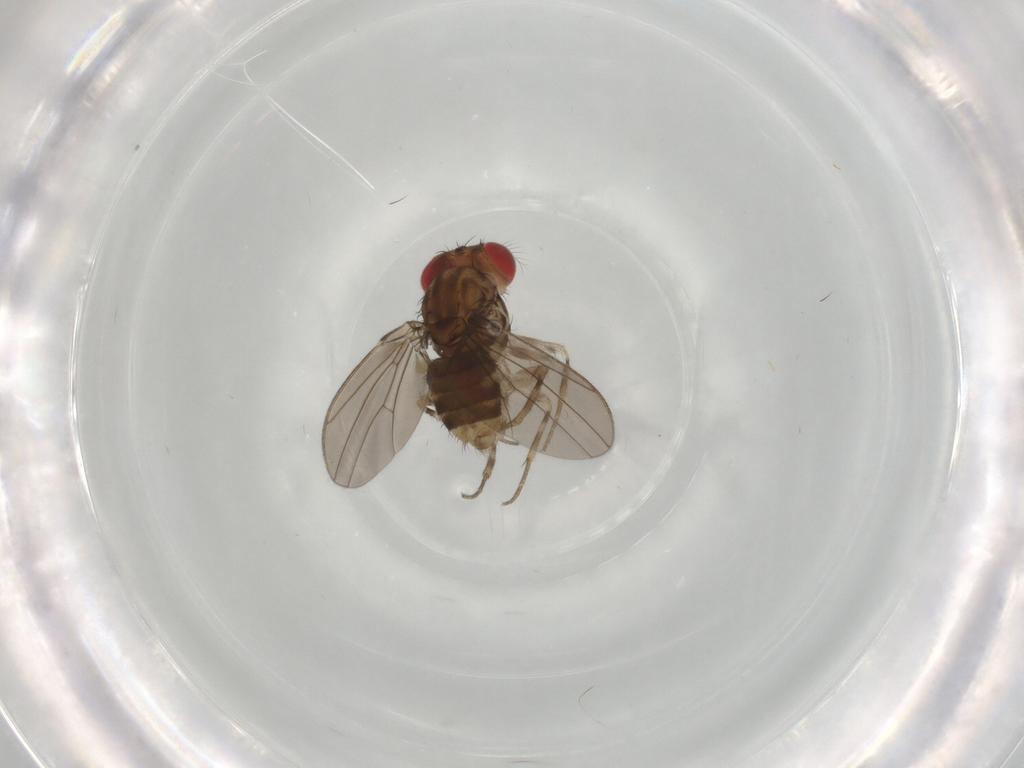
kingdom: Animalia
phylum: Arthropoda
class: Insecta
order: Diptera
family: Drosophilidae
